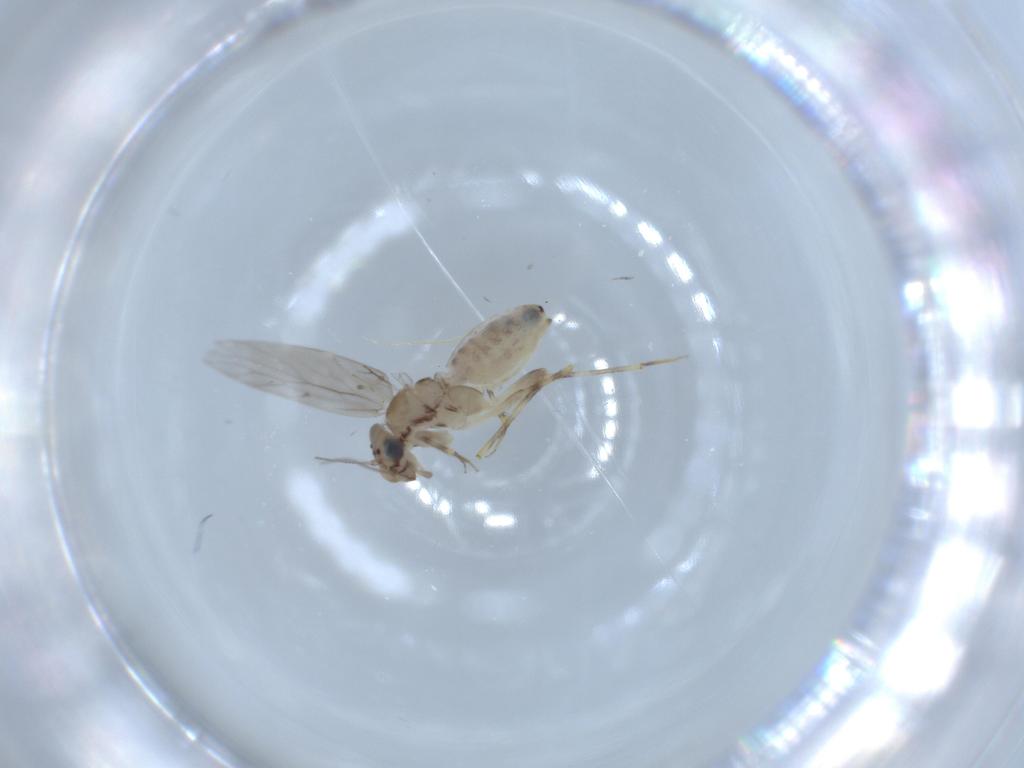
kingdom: Animalia
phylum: Arthropoda
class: Insecta
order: Psocodea
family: Lepidopsocidae
